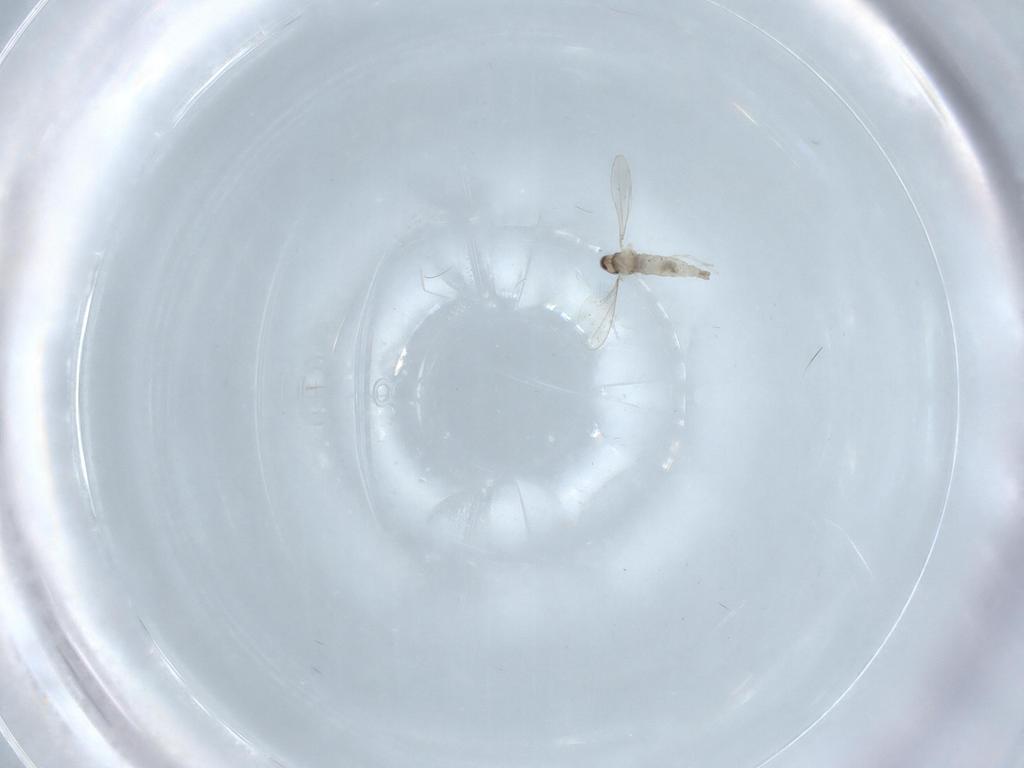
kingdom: Animalia
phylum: Arthropoda
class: Insecta
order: Diptera
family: Cecidomyiidae
